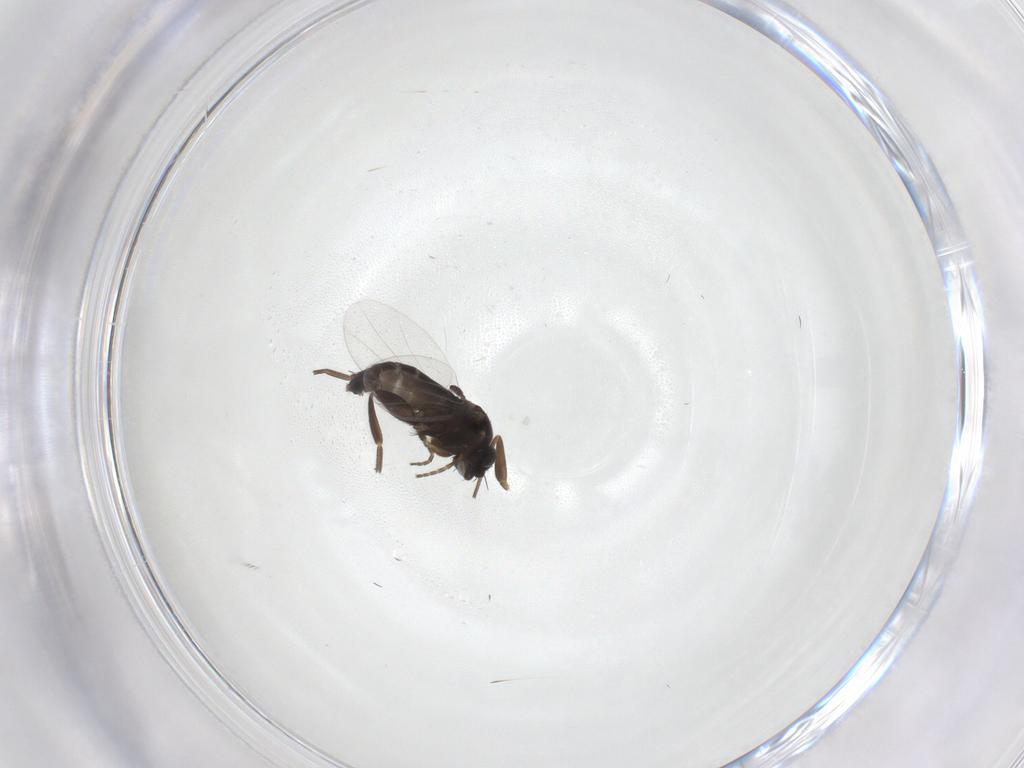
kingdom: Animalia
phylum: Arthropoda
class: Insecta
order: Diptera
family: Phoridae
